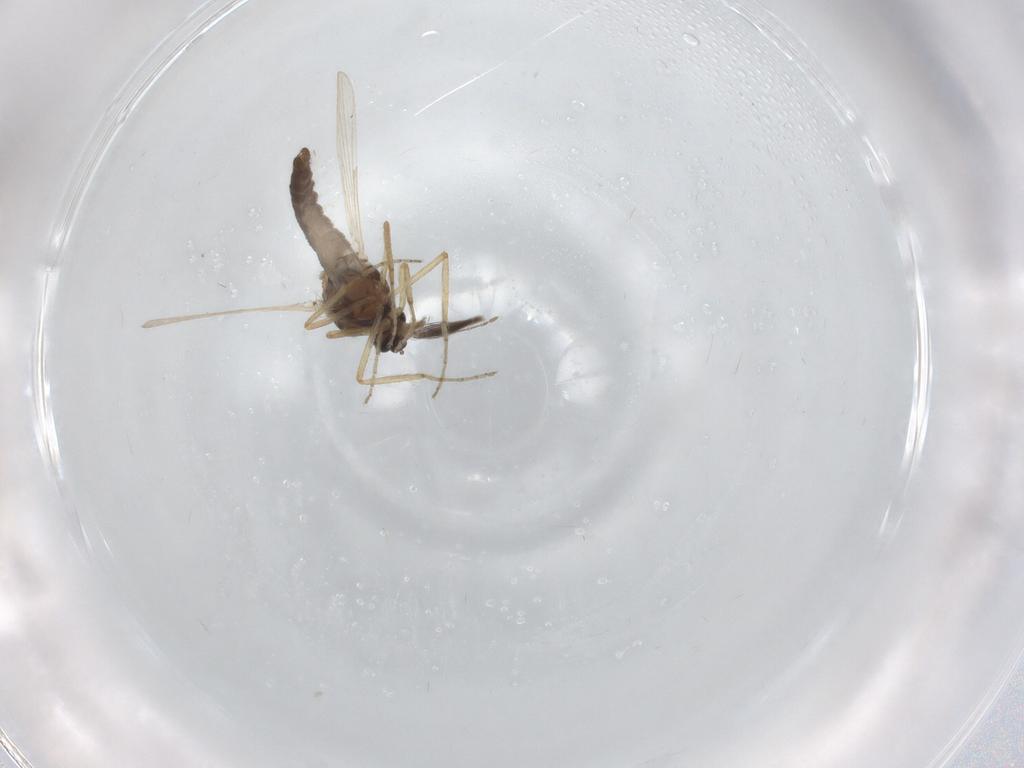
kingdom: Animalia
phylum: Arthropoda
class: Insecta
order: Diptera
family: Ceratopogonidae
